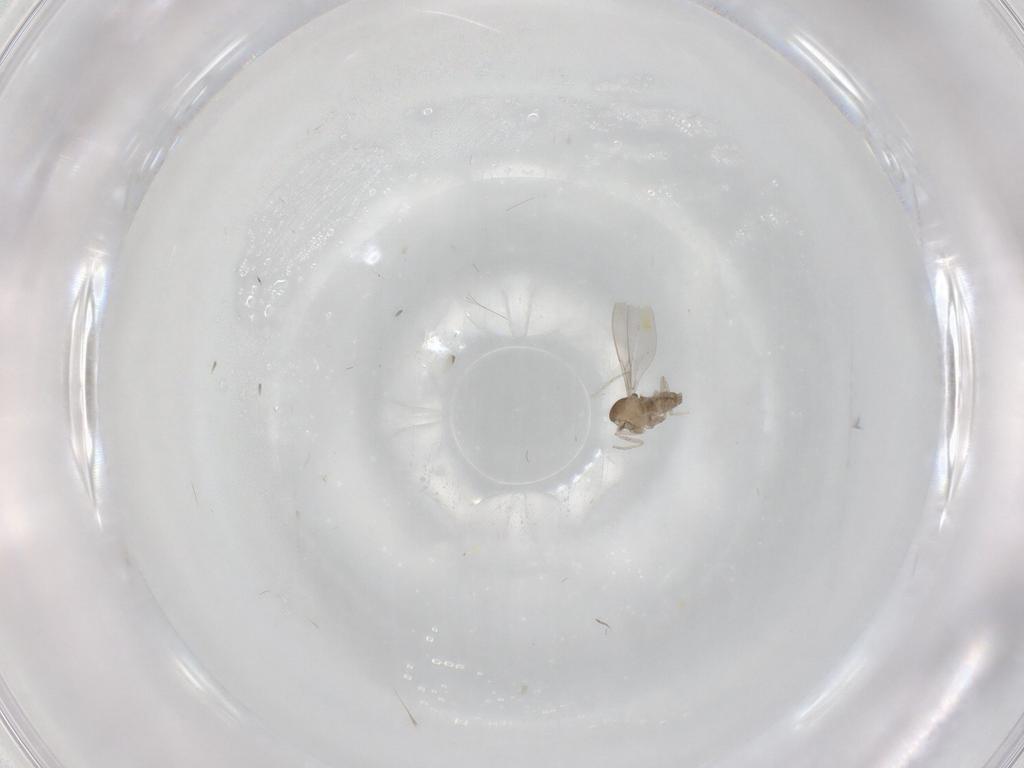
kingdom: Animalia
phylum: Arthropoda
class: Insecta
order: Diptera
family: Cecidomyiidae
